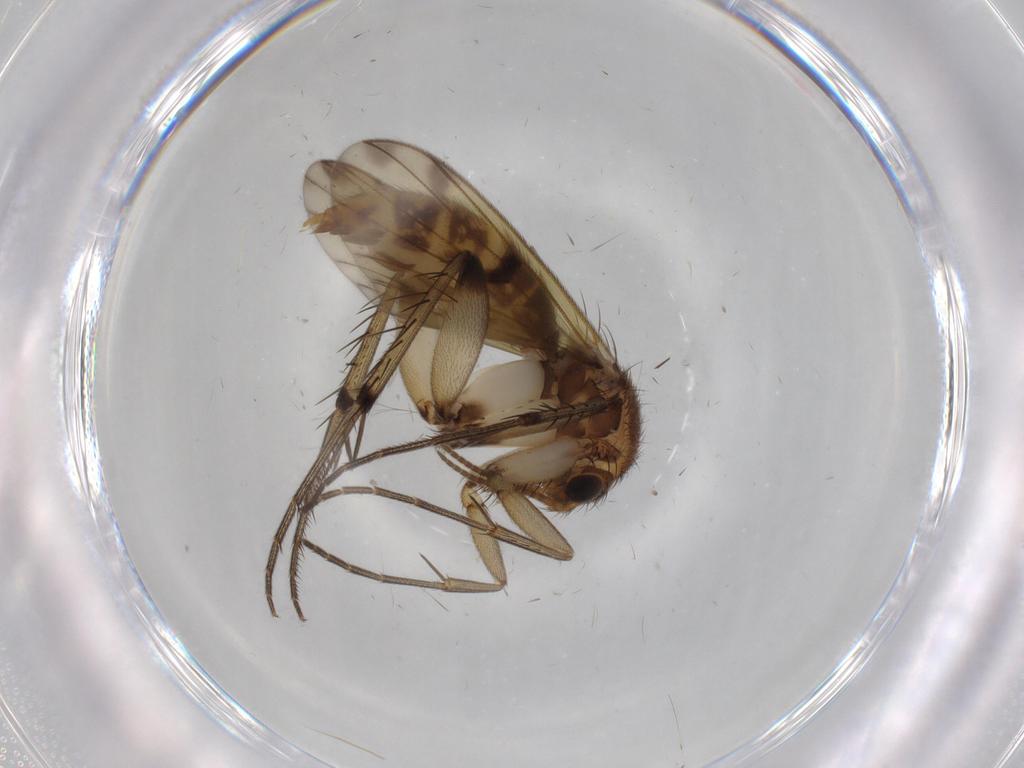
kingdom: Animalia
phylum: Arthropoda
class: Insecta
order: Diptera
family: Mycetophilidae
